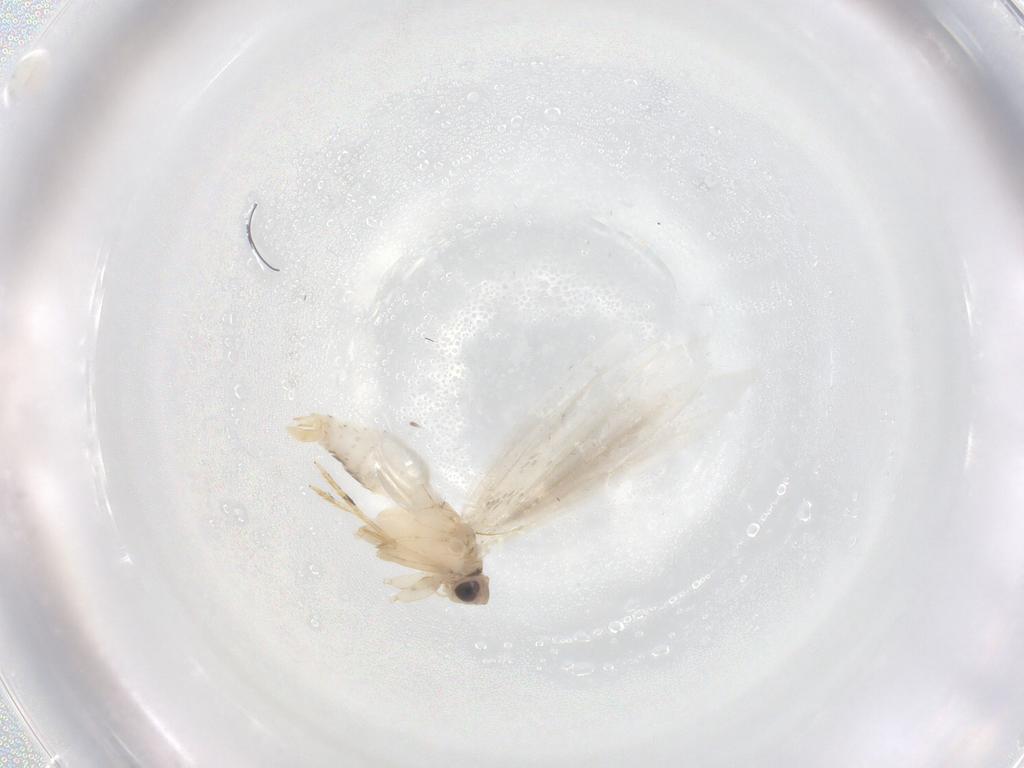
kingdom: Animalia
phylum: Arthropoda
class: Insecta
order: Lepidoptera
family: Tineidae
